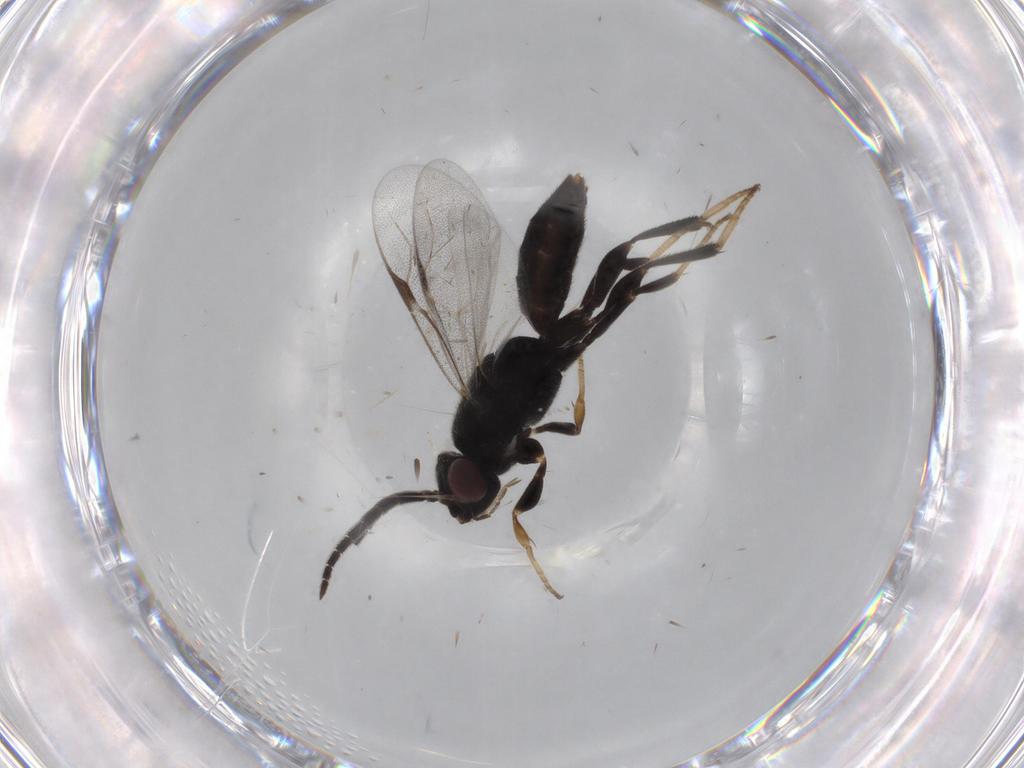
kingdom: Animalia
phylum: Arthropoda
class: Insecta
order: Hymenoptera
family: Dryinidae
